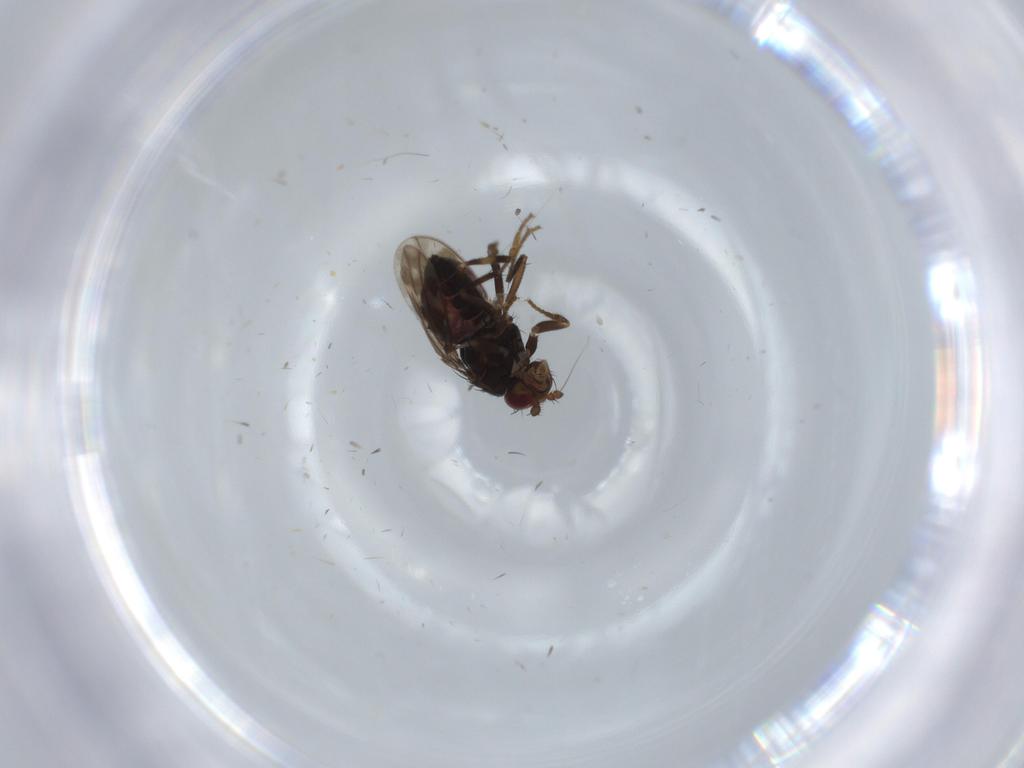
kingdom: Animalia
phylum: Arthropoda
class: Insecta
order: Diptera
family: Sphaeroceridae
